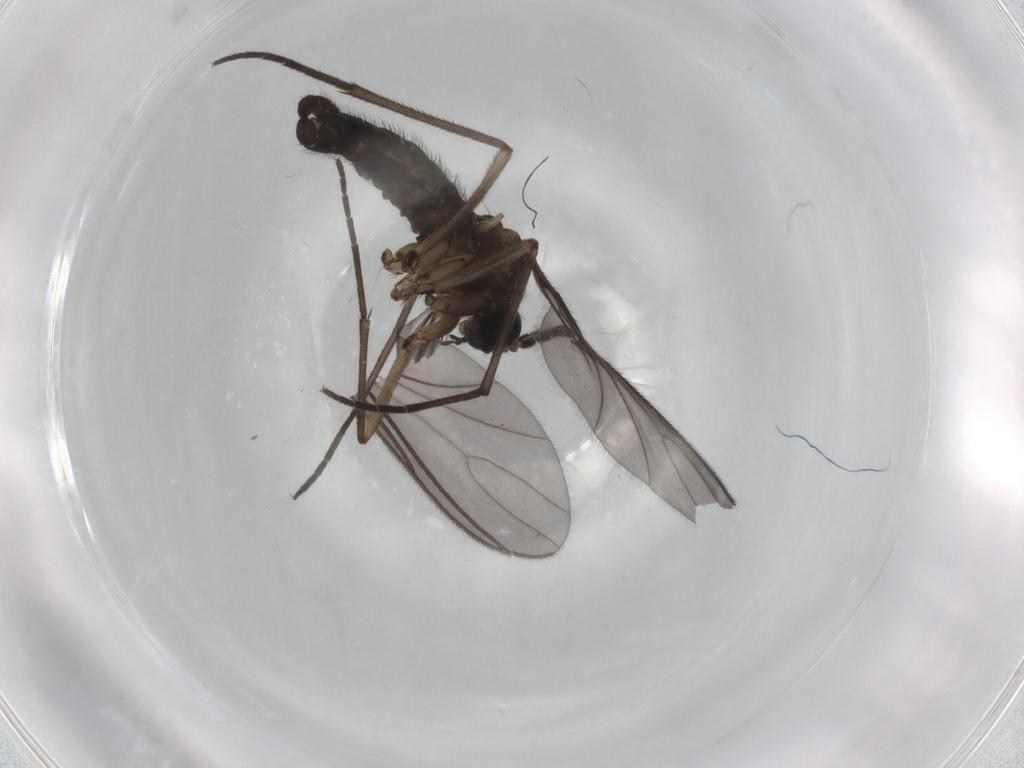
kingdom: Animalia
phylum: Arthropoda
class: Insecta
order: Diptera
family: Sciaridae
